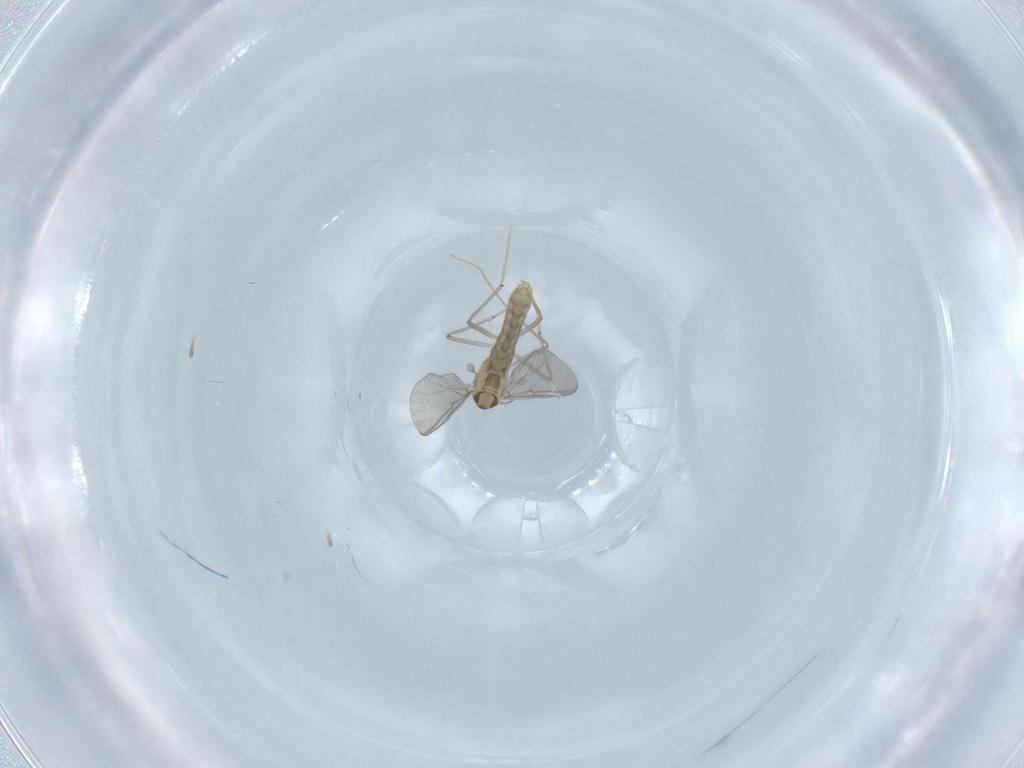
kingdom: Animalia
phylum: Arthropoda
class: Insecta
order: Diptera
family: Chironomidae
